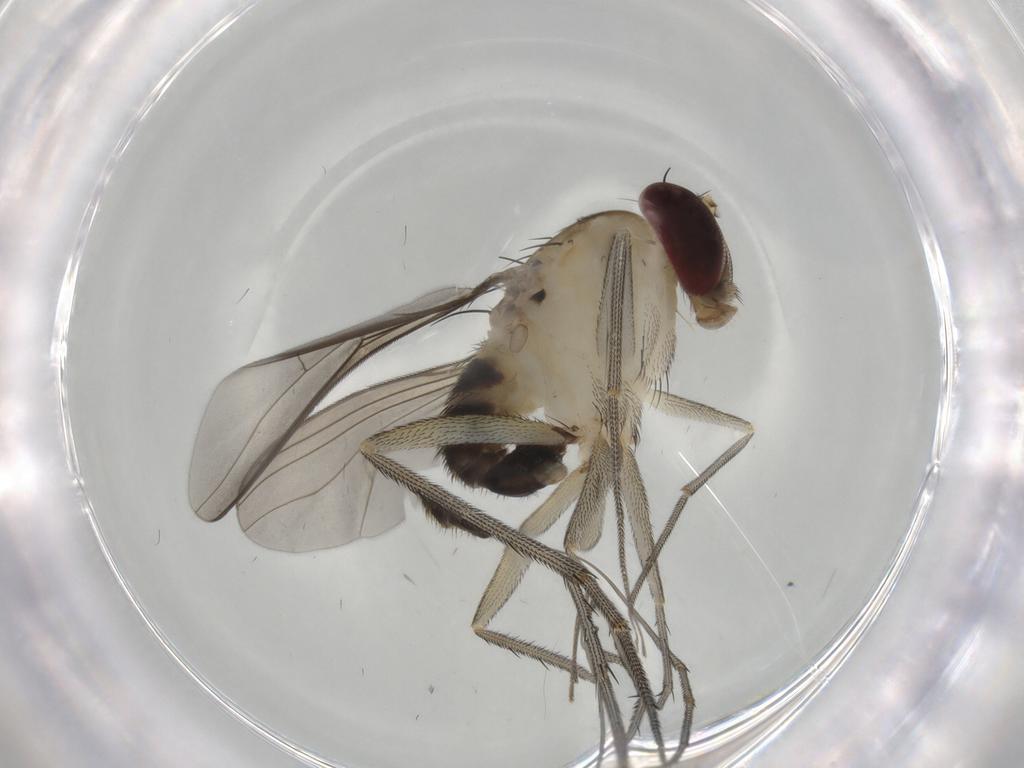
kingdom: Animalia
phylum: Arthropoda
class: Insecta
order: Diptera
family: Dolichopodidae
